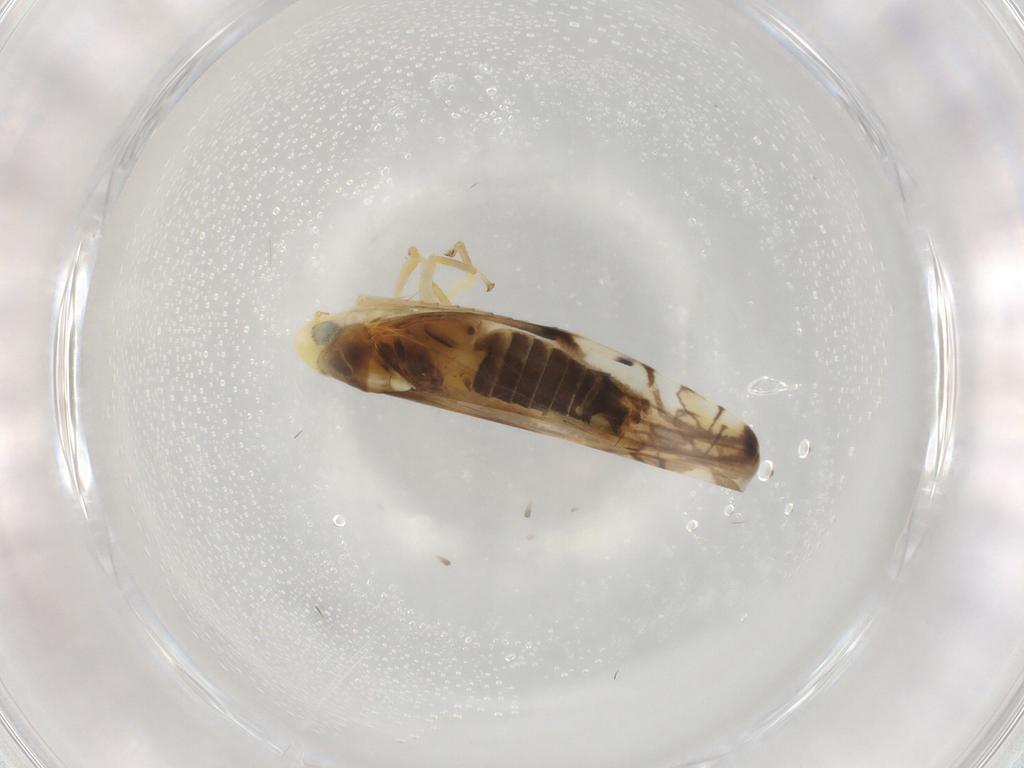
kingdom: Animalia
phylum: Arthropoda
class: Insecta
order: Hemiptera
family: Cicadellidae
